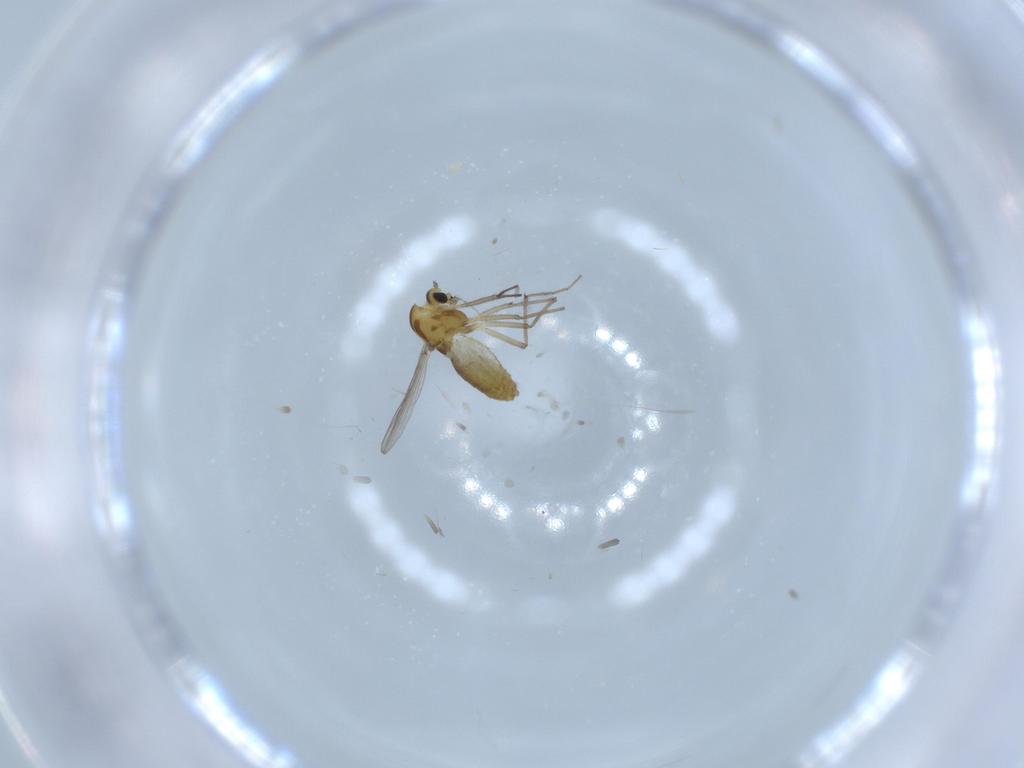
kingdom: Animalia
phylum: Arthropoda
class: Insecta
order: Diptera
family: Chironomidae
